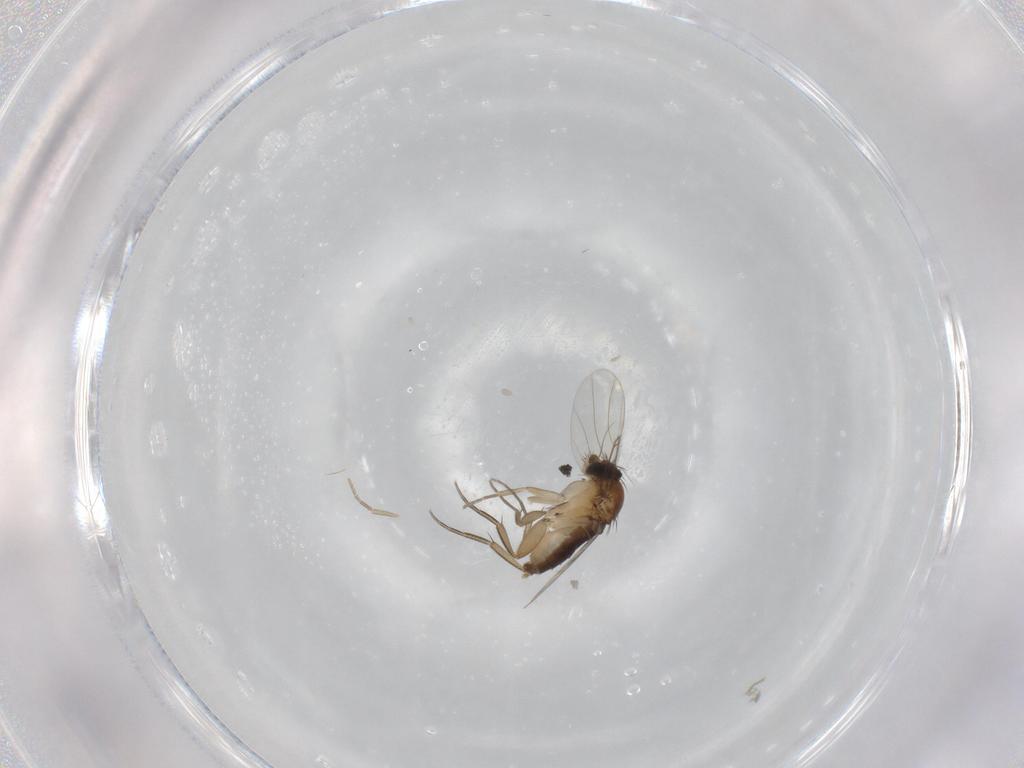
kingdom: Animalia
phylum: Arthropoda
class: Insecta
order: Diptera
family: Phoridae
